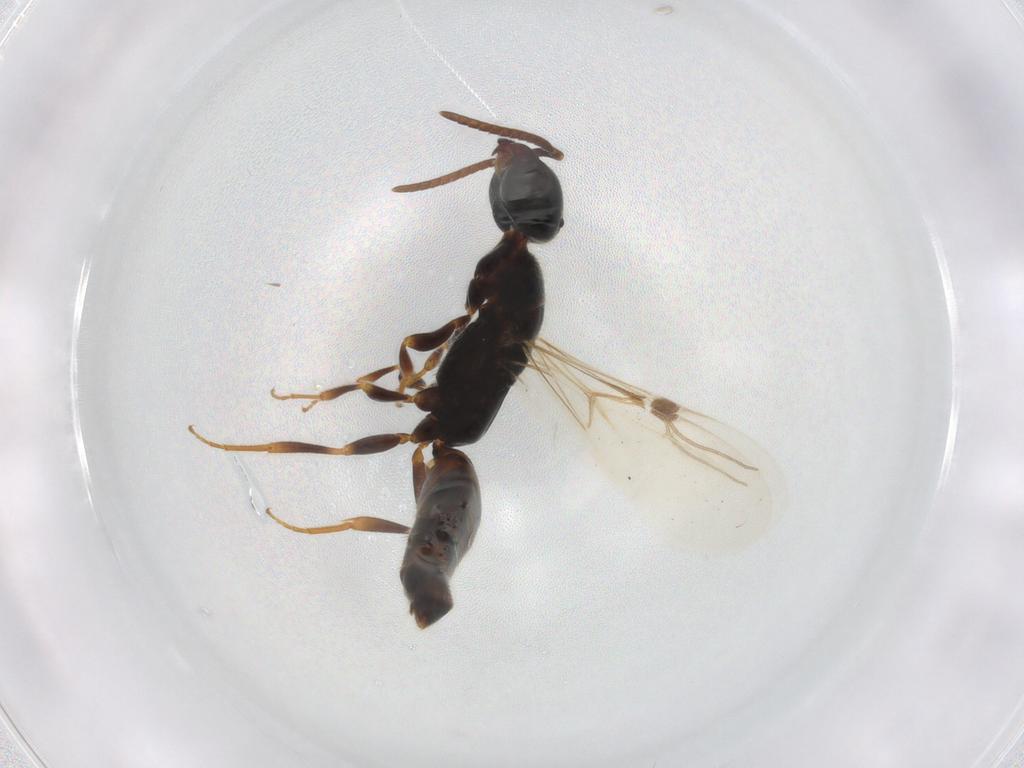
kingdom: Animalia
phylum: Arthropoda
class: Insecta
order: Hymenoptera
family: Bethylidae
